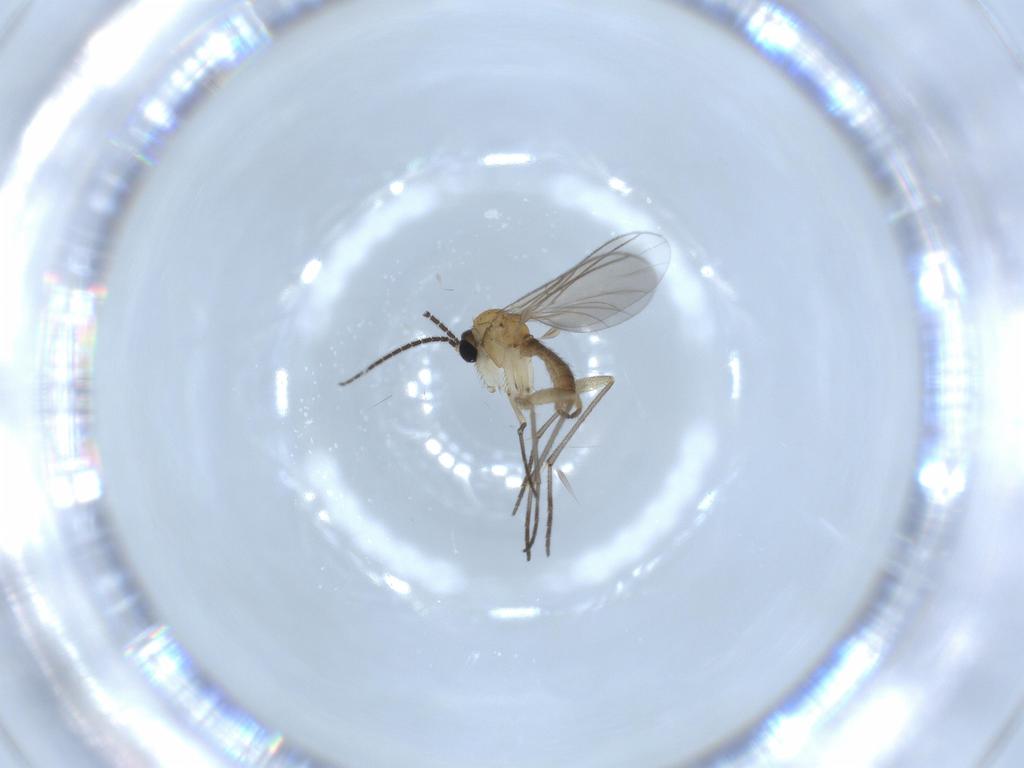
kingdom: Animalia
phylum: Arthropoda
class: Insecta
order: Diptera
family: Sciaridae
